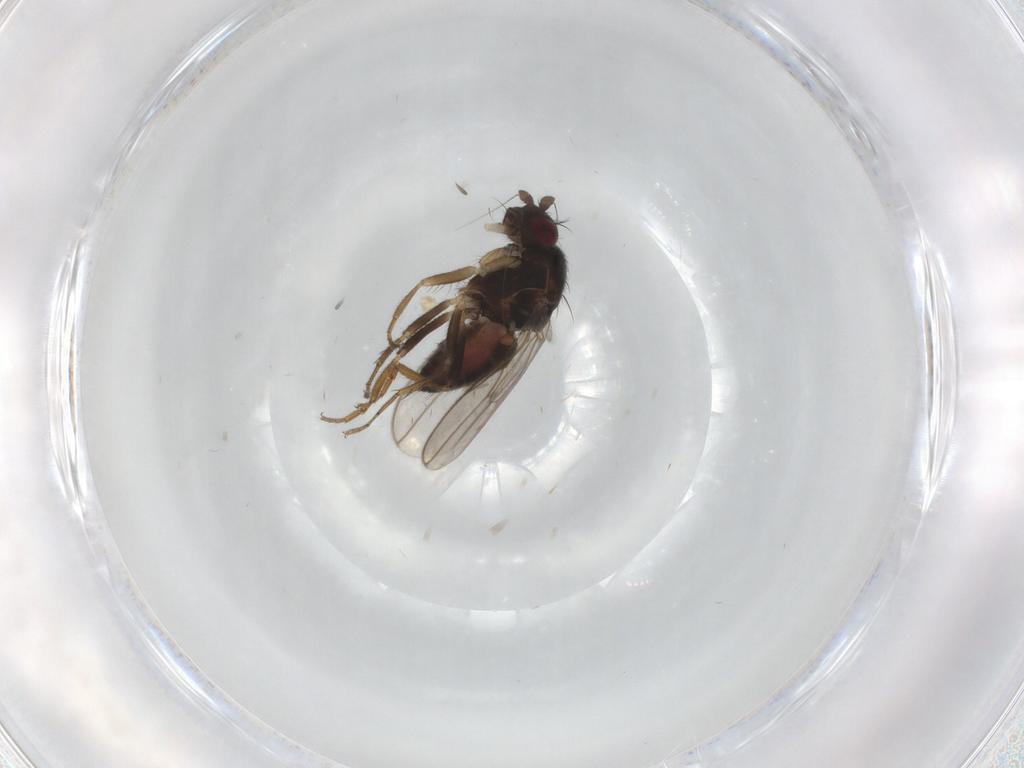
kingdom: Animalia
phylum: Arthropoda
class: Insecta
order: Diptera
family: Sphaeroceridae
